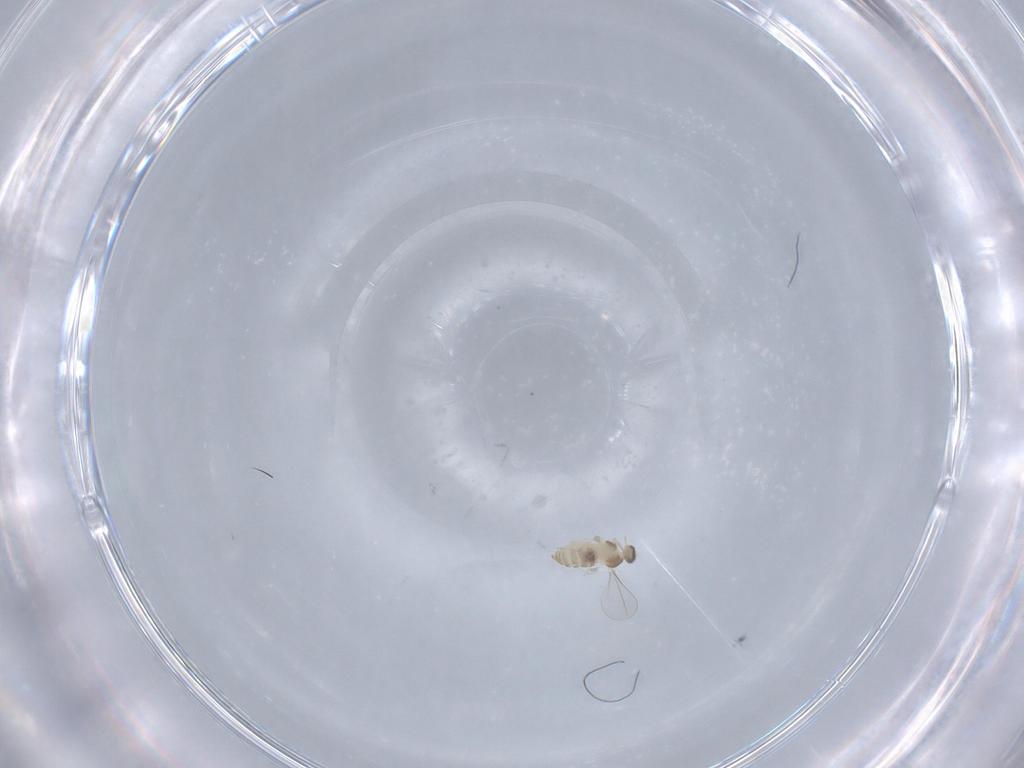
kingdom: Animalia
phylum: Arthropoda
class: Insecta
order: Diptera
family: Cecidomyiidae
